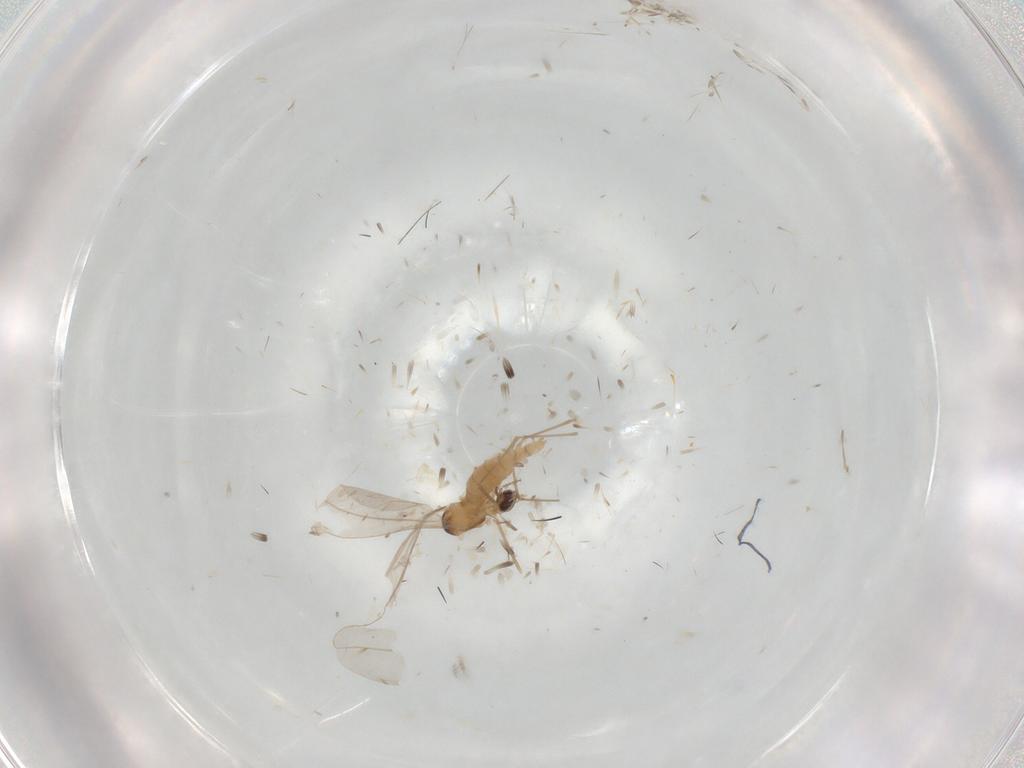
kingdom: Animalia
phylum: Arthropoda
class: Insecta
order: Diptera
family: Cecidomyiidae
